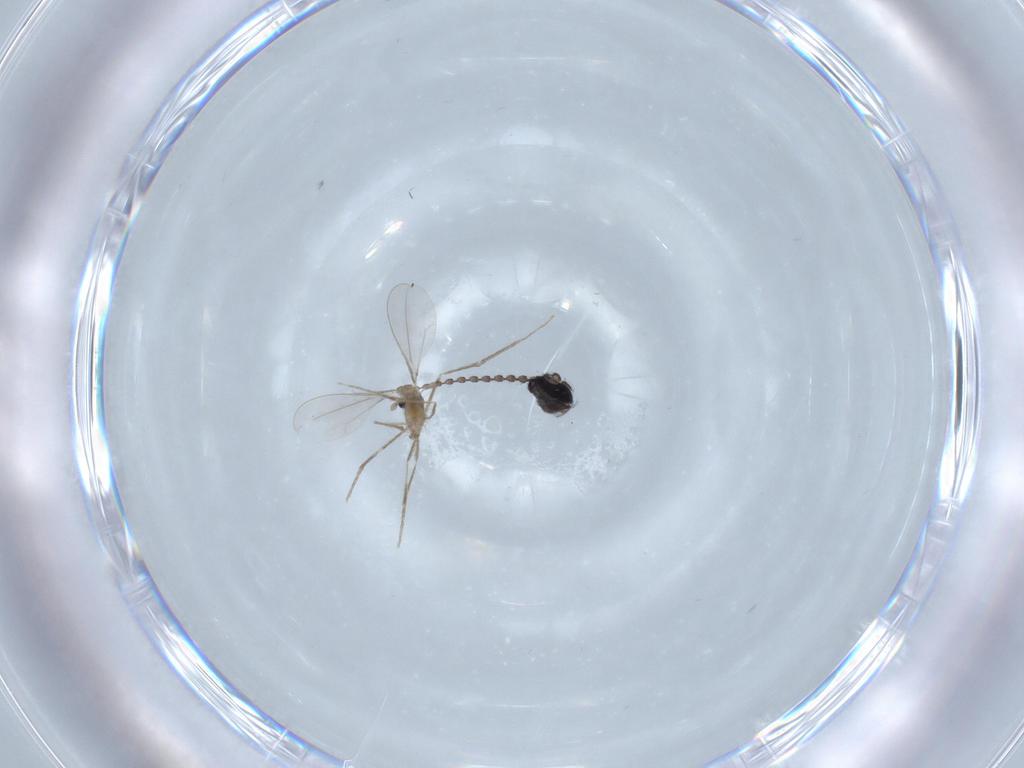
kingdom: Animalia
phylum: Arthropoda
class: Insecta
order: Diptera
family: Cecidomyiidae
